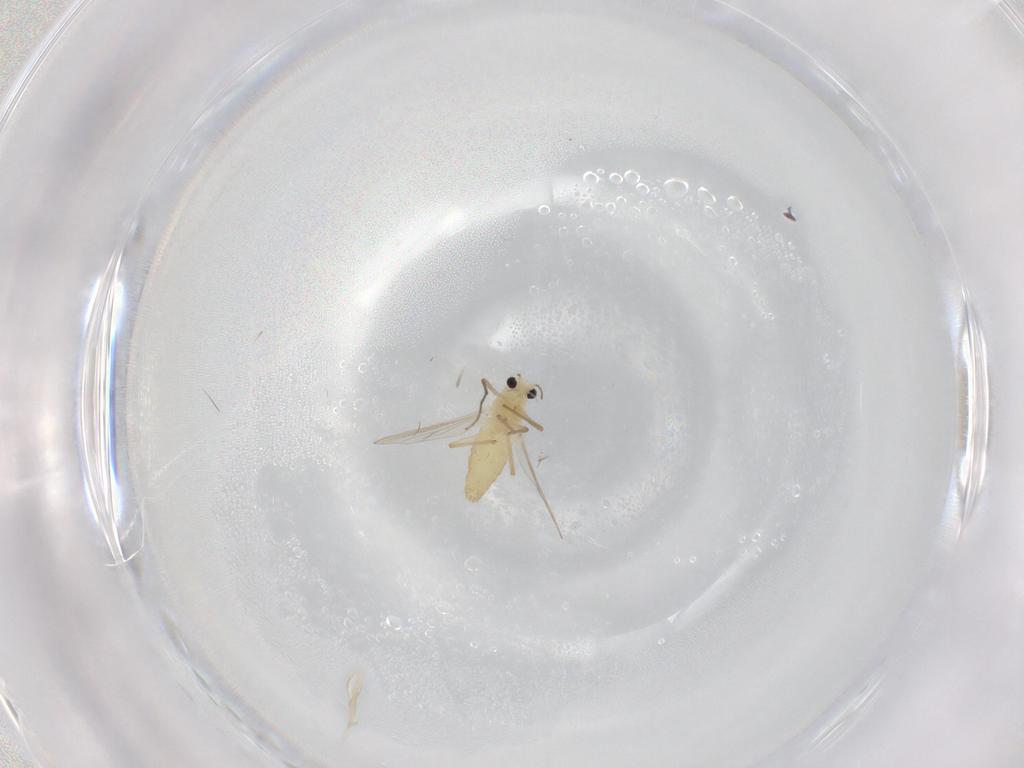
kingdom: Animalia
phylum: Arthropoda
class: Insecta
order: Diptera
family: Chironomidae
